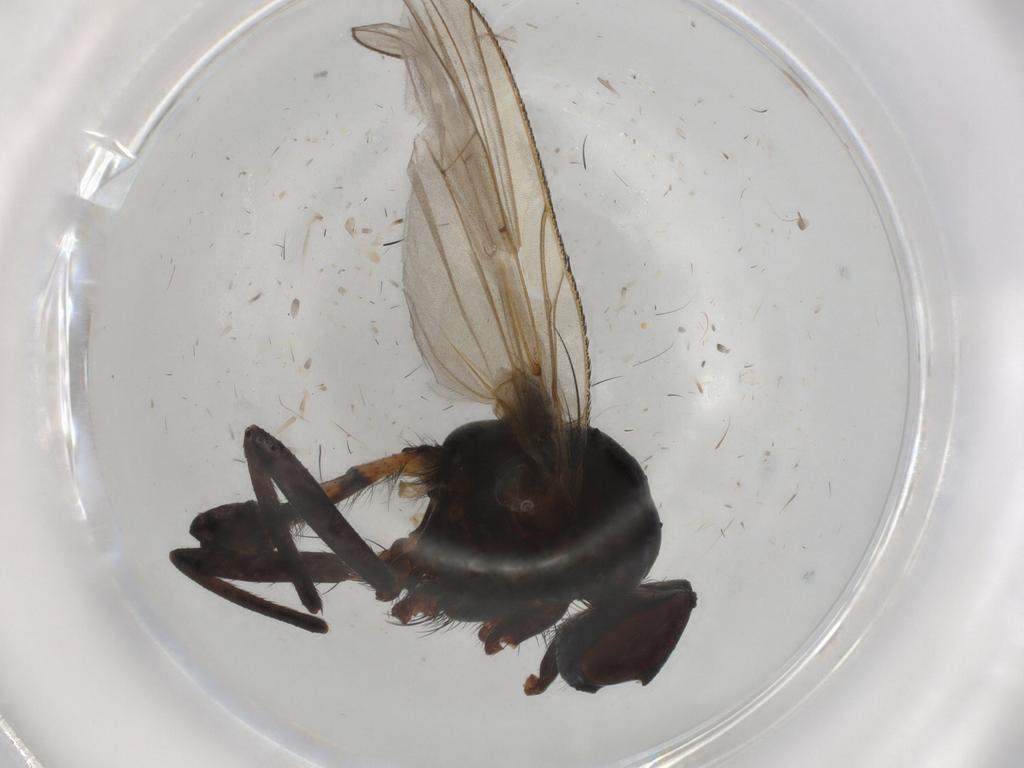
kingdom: Animalia
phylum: Arthropoda
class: Insecta
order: Diptera
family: Anthomyiidae
